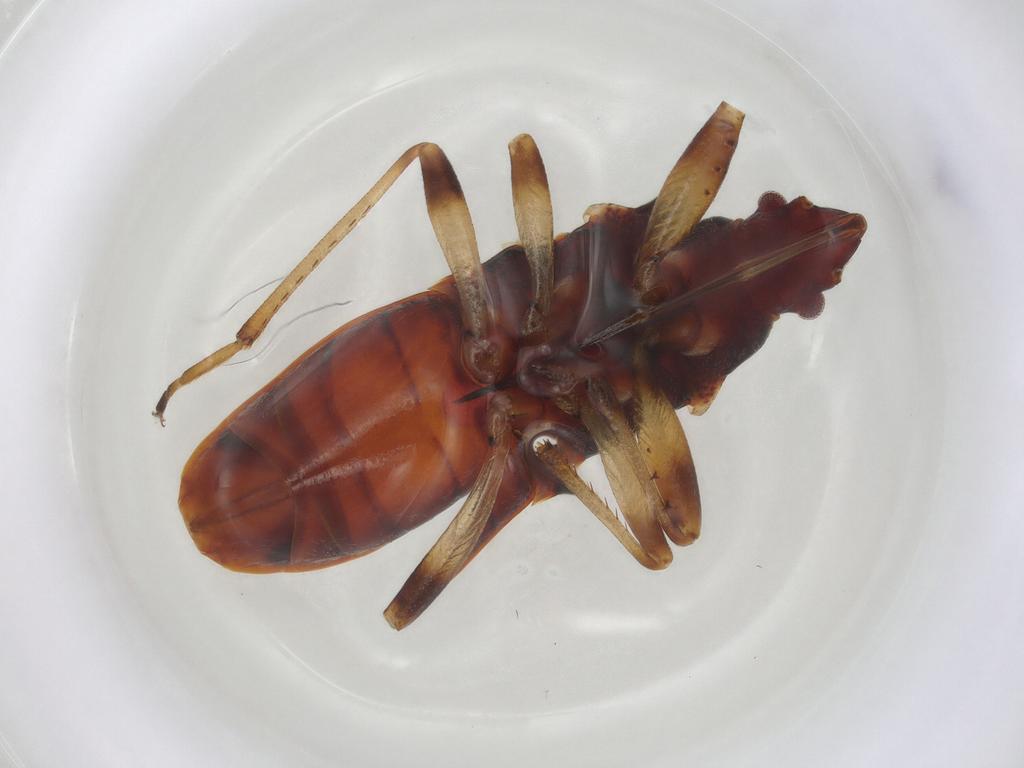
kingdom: Animalia
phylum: Arthropoda
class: Insecta
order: Hemiptera
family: Pachygronthidae
